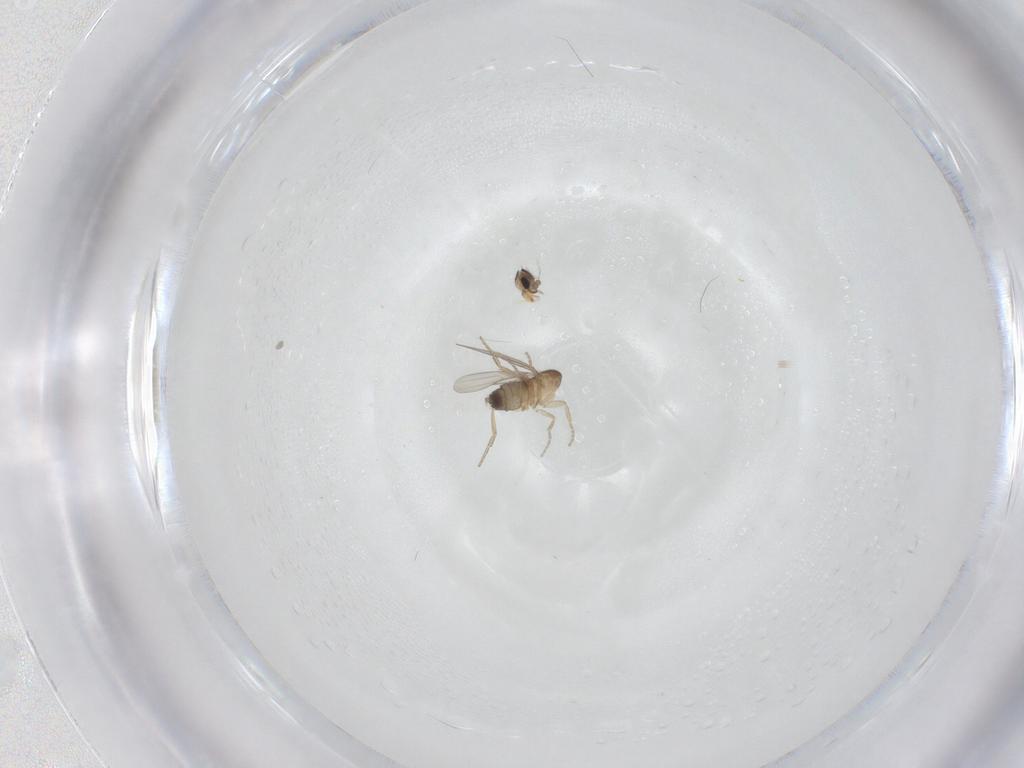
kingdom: Animalia
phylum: Arthropoda
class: Insecta
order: Diptera
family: Phoridae
